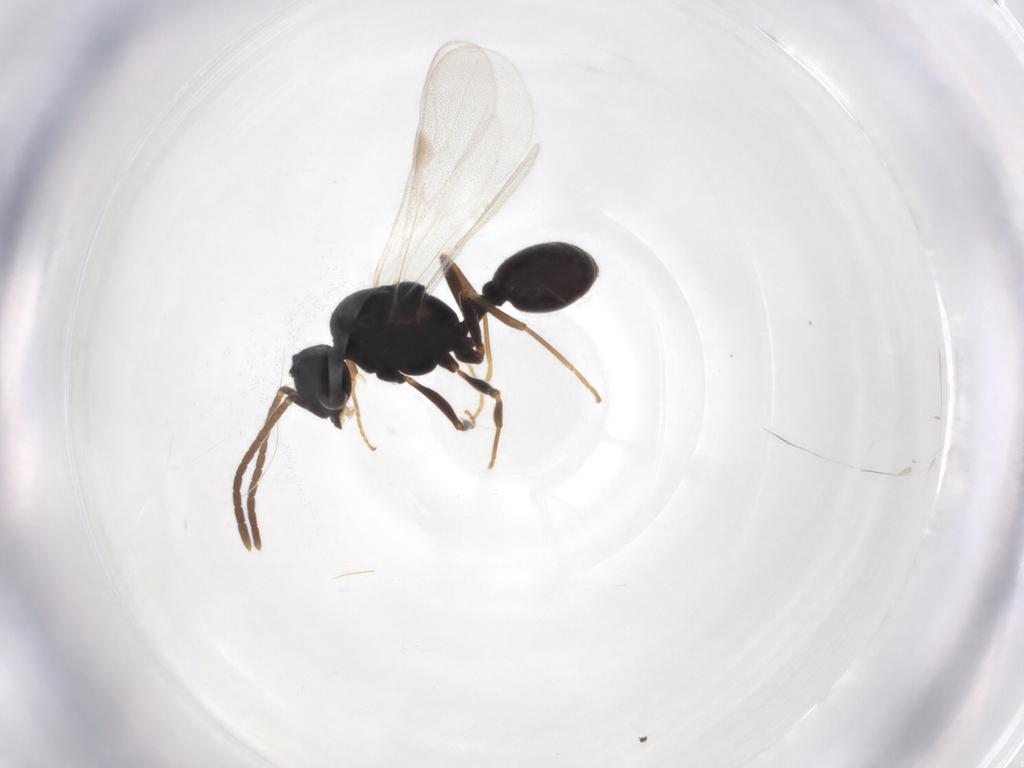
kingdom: Animalia
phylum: Arthropoda
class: Insecta
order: Hymenoptera
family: Formicidae
